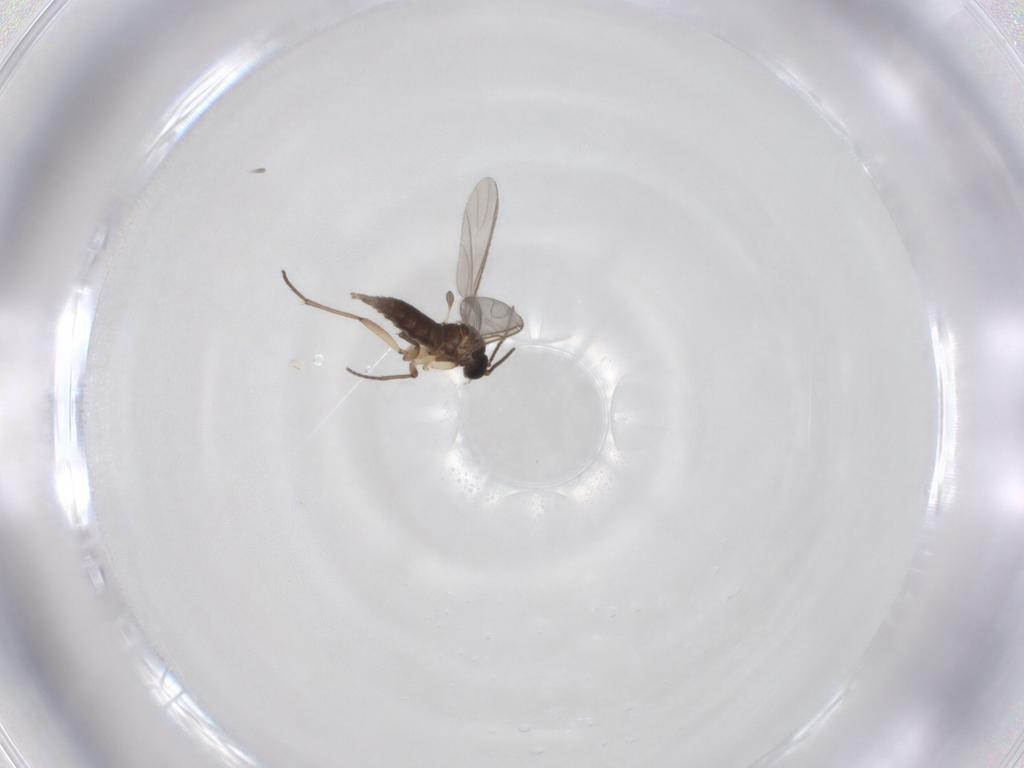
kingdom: Animalia
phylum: Arthropoda
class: Insecta
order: Diptera
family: Sciaridae
